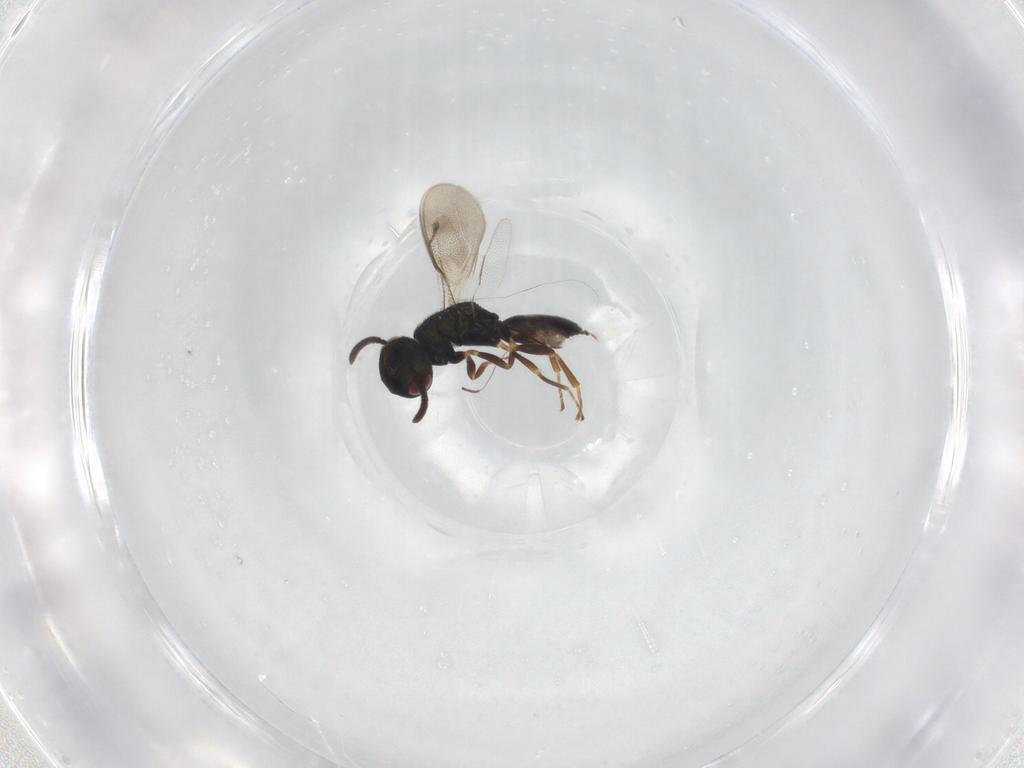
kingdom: Animalia
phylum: Arthropoda
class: Insecta
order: Hymenoptera
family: Pteromalidae
